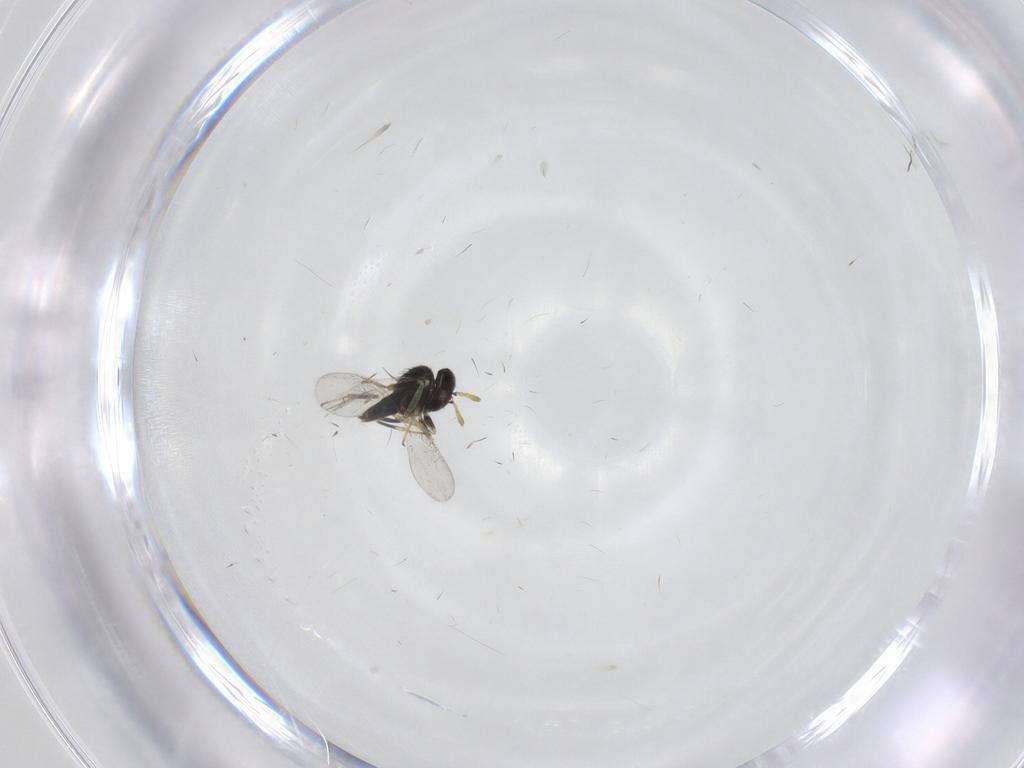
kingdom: Animalia
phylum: Arthropoda
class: Insecta
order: Hymenoptera
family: Aphelinidae
